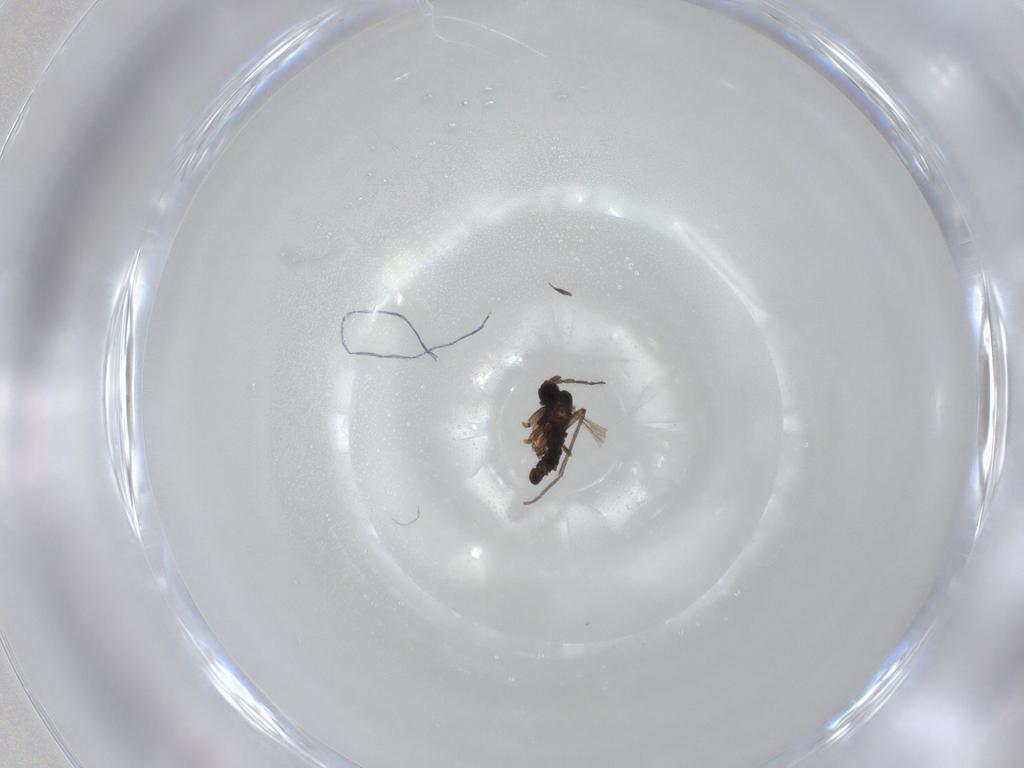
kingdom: Animalia
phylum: Arthropoda
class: Insecta
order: Diptera
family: Sciaridae
